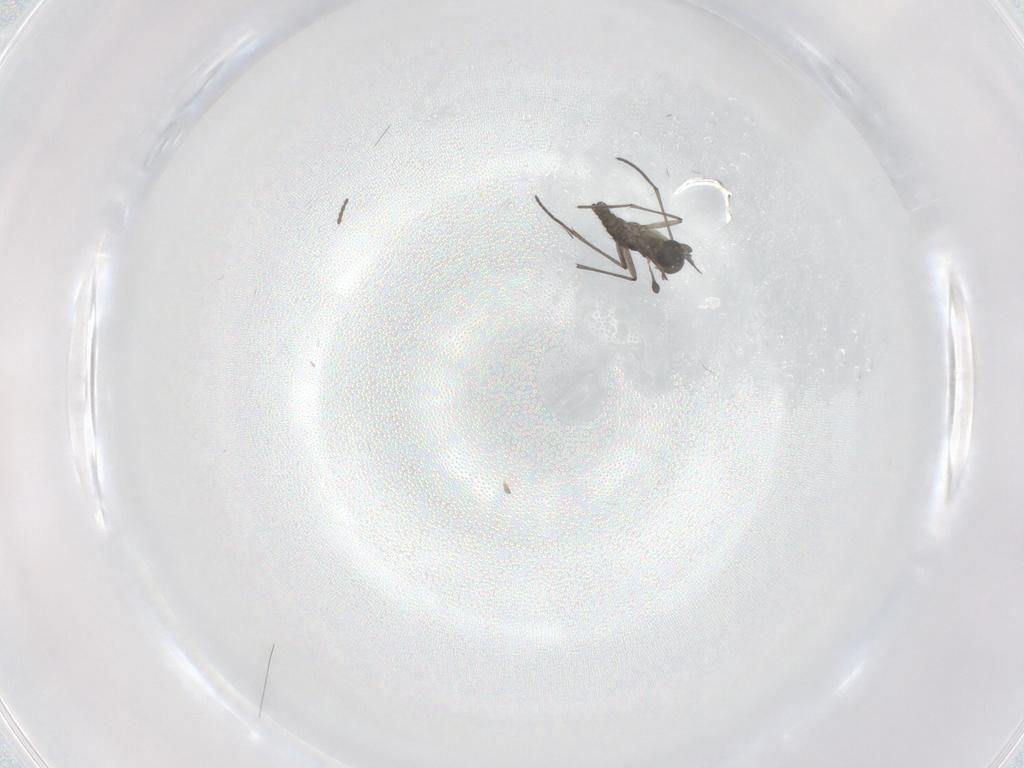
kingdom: Animalia
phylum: Arthropoda
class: Insecta
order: Diptera
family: Limoniidae
